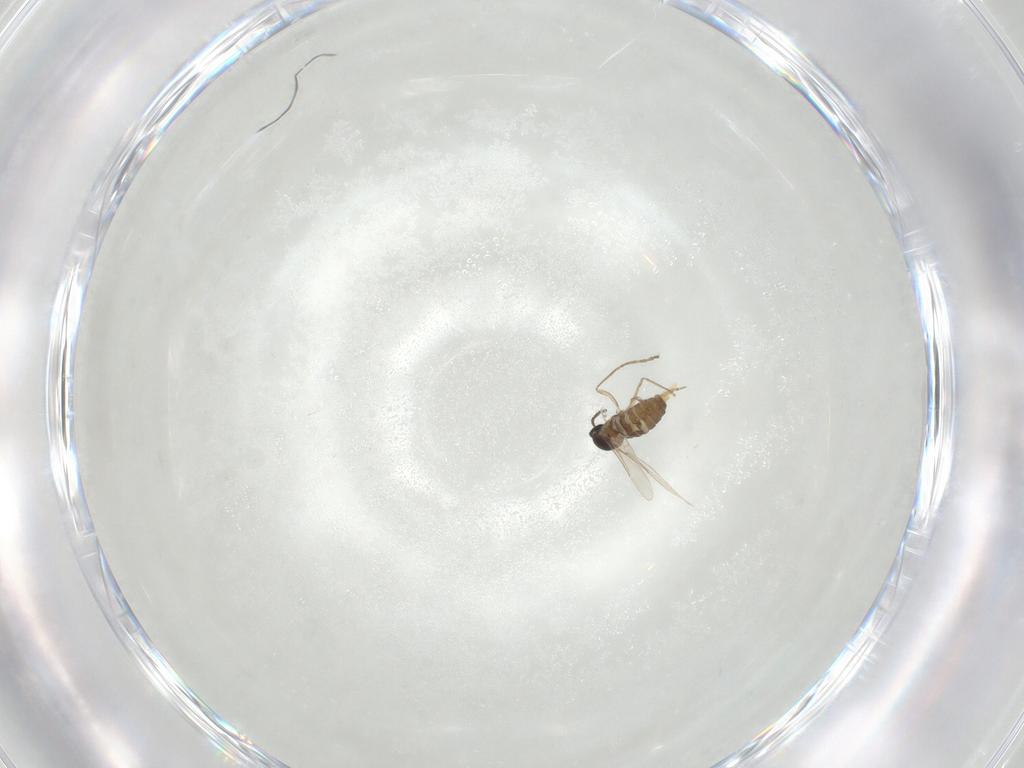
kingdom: Animalia
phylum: Arthropoda
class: Insecta
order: Diptera
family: Cecidomyiidae
